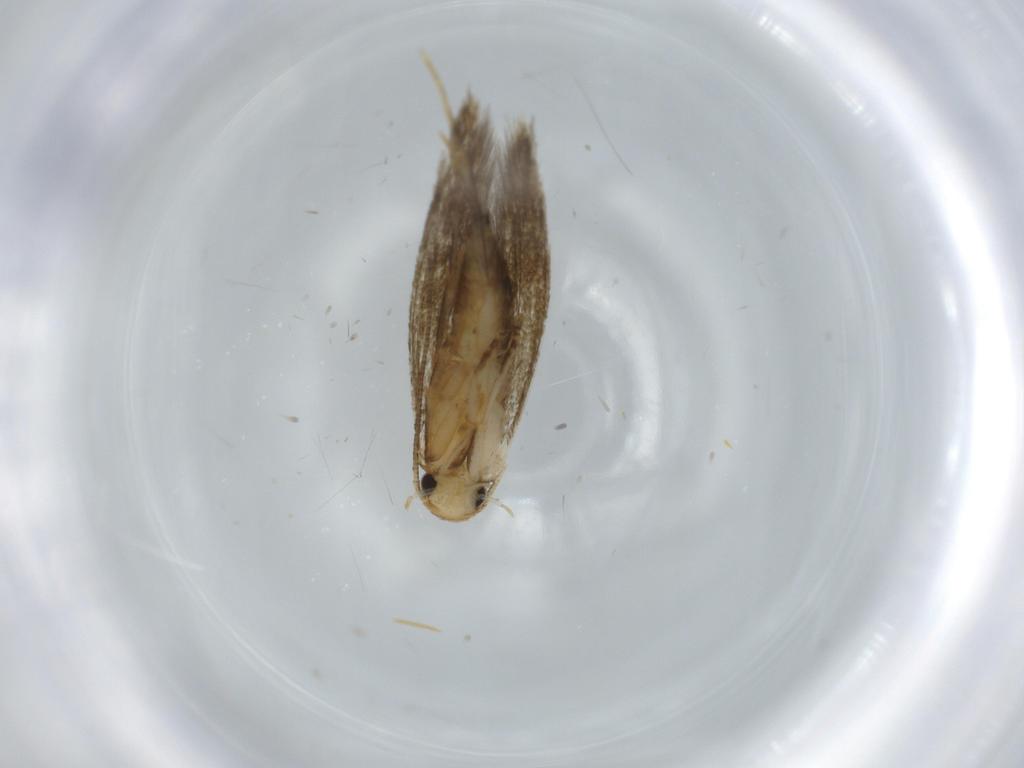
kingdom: Animalia
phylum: Arthropoda
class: Insecta
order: Lepidoptera
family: Tineidae
